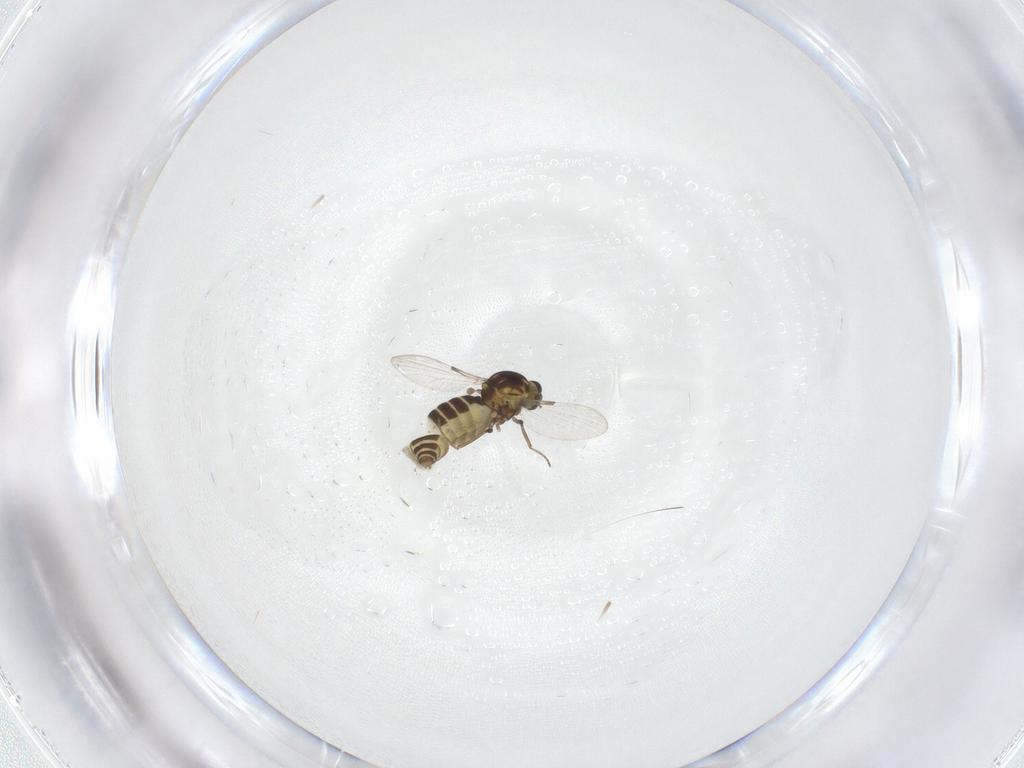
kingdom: Animalia
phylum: Arthropoda
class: Insecta
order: Diptera
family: Ceratopogonidae
